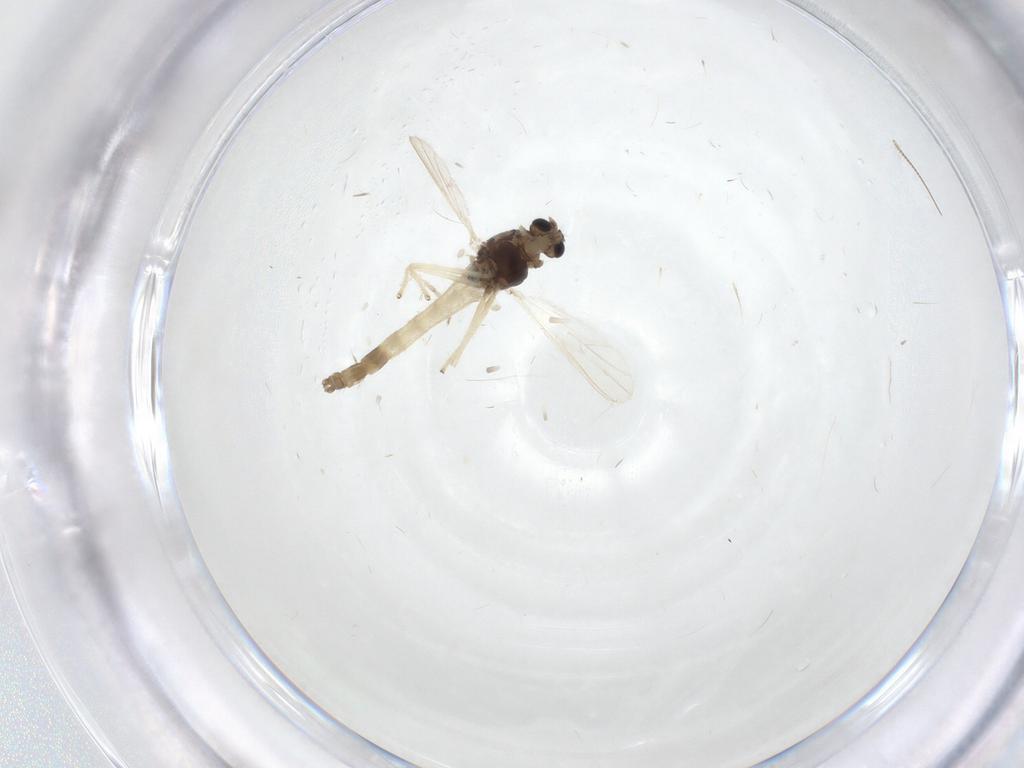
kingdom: Animalia
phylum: Arthropoda
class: Insecta
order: Diptera
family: Chironomidae
